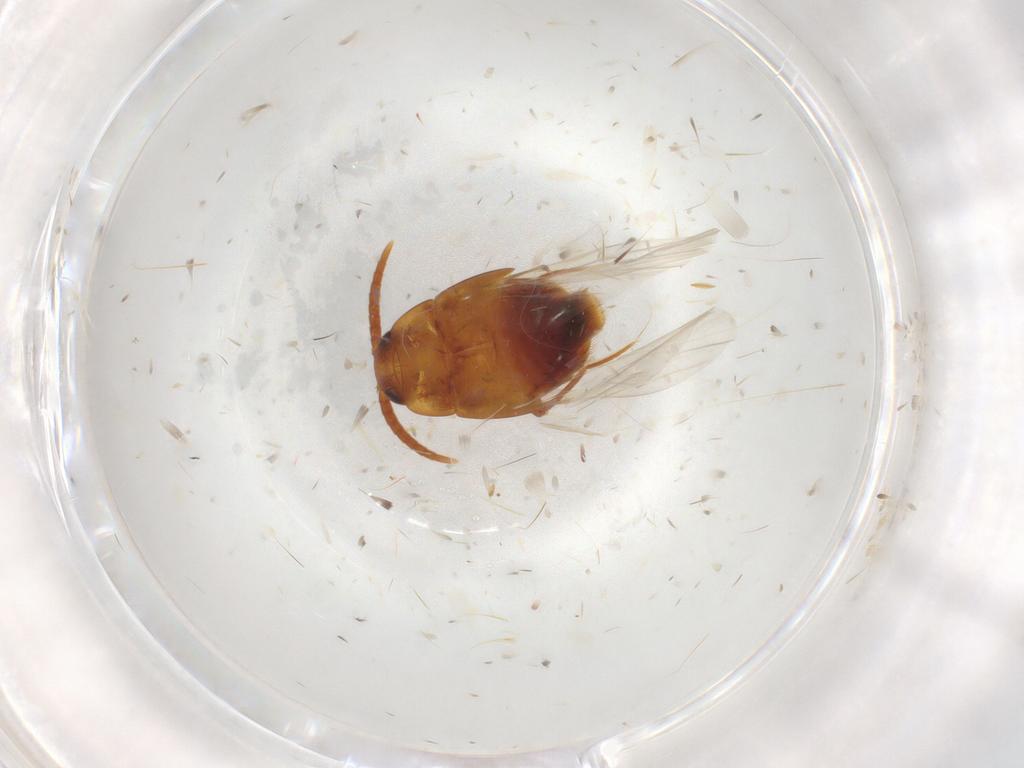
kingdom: Animalia
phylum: Arthropoda
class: Insecta
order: Coleoptera
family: Staphylinidae
